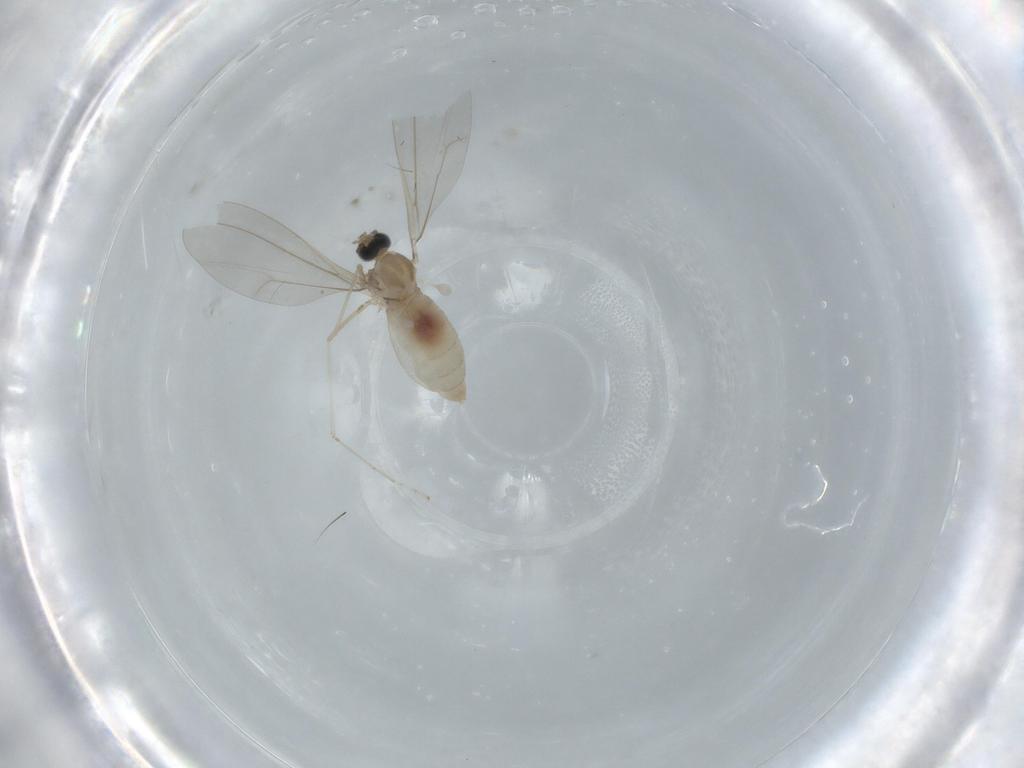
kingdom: Animalia
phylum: Arthropoda
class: Insecta
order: Diptera
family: Cecidomyiidae
